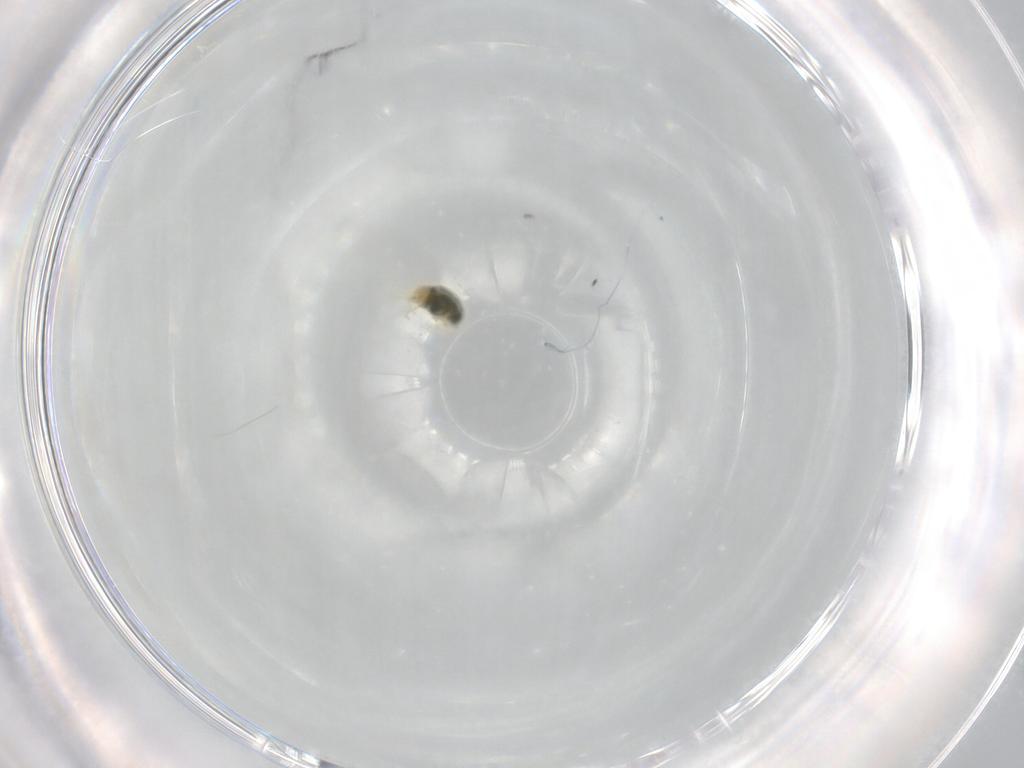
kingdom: Animalia
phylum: Arthropoda
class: Arachnida
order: Trombidiformes
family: Tetranychidae
